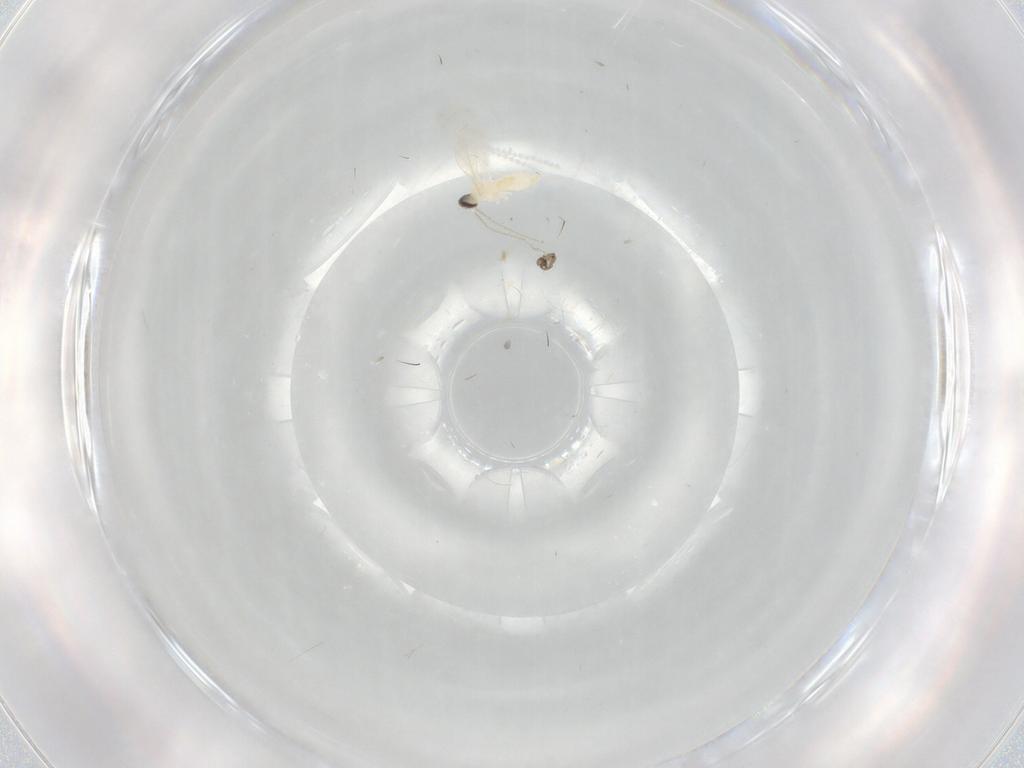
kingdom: Animalia
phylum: Arthropoda
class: Insecta
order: Diptera
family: Cecidomyiidae
